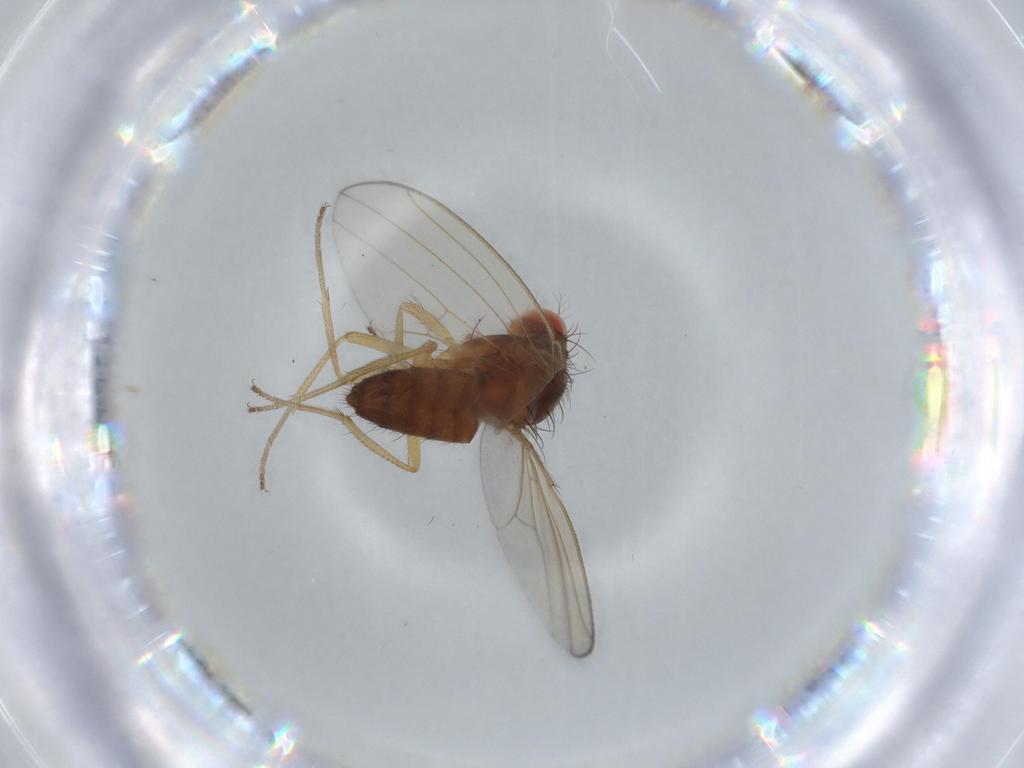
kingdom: Animalia
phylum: Arthropoda
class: Insecta
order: Diptera
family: Drosophilidae
